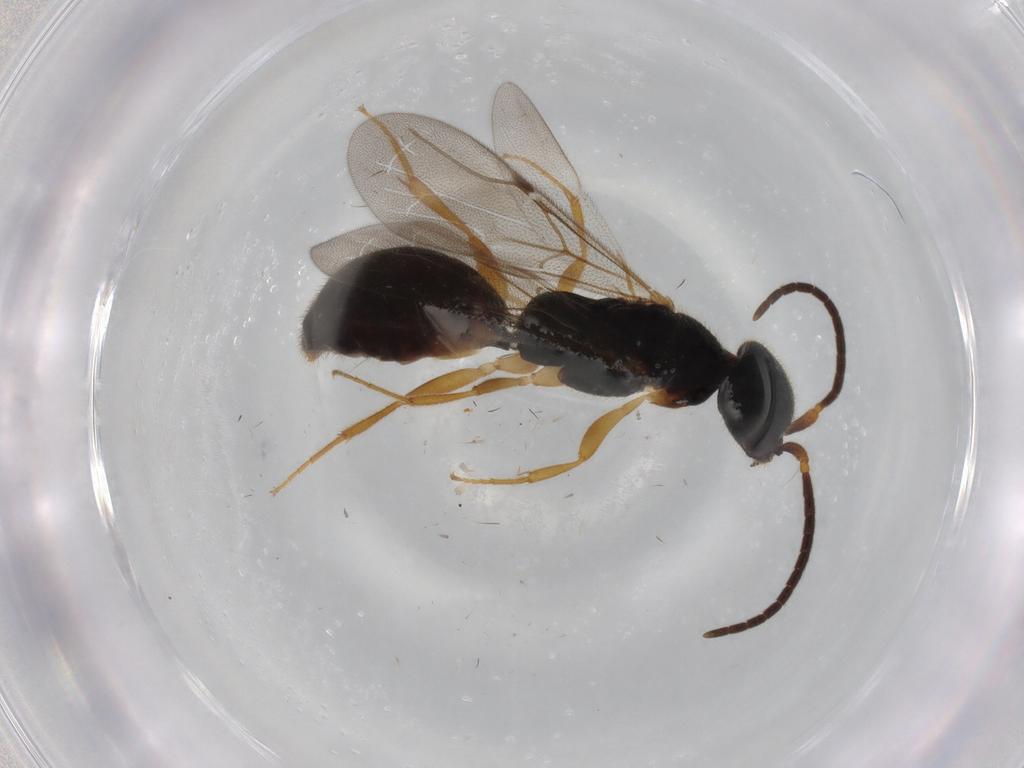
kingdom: Animalia
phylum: Arthropoda
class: Insecta
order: Hymenoptera
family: Bethylidae
